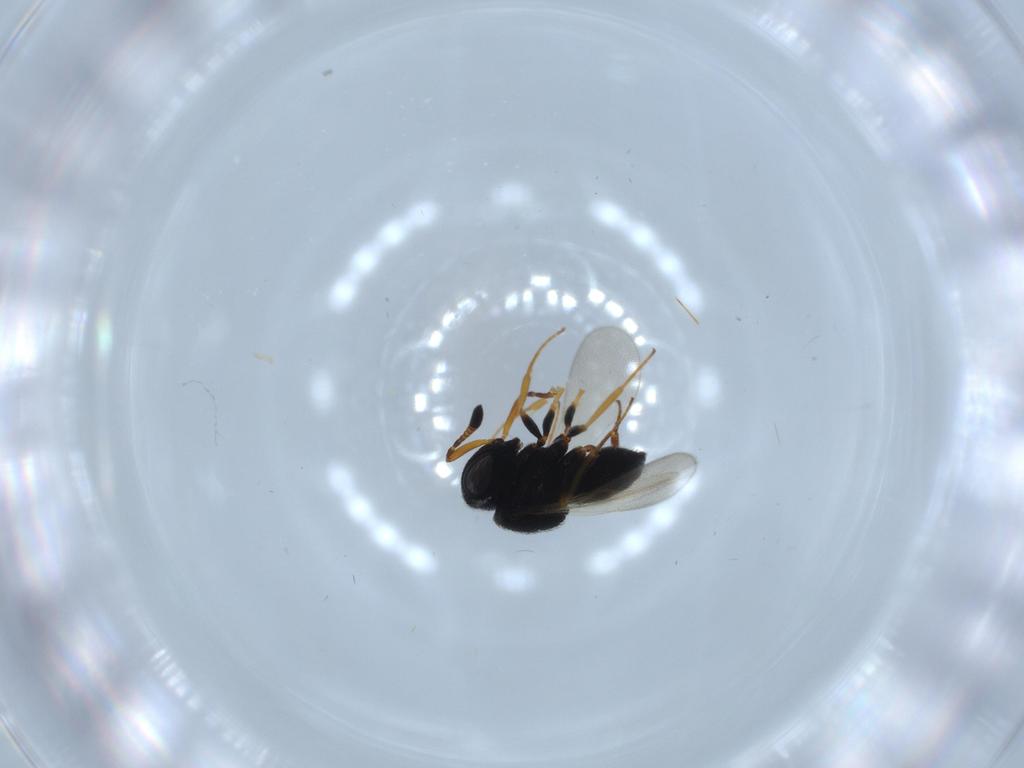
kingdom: Animalia
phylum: Arthropoda
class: Insecta
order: Hymenoptera
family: Scelionidae
